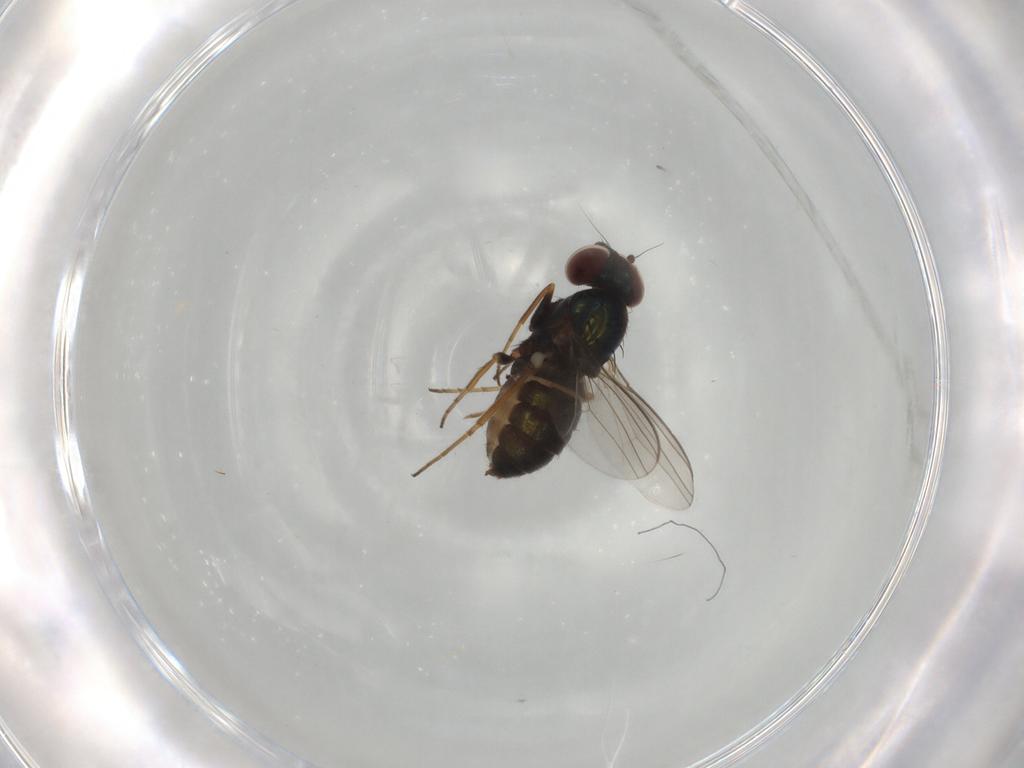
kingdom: Animalia
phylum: Arthropoda
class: Insecta
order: Diptera
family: Dolichopodidae
